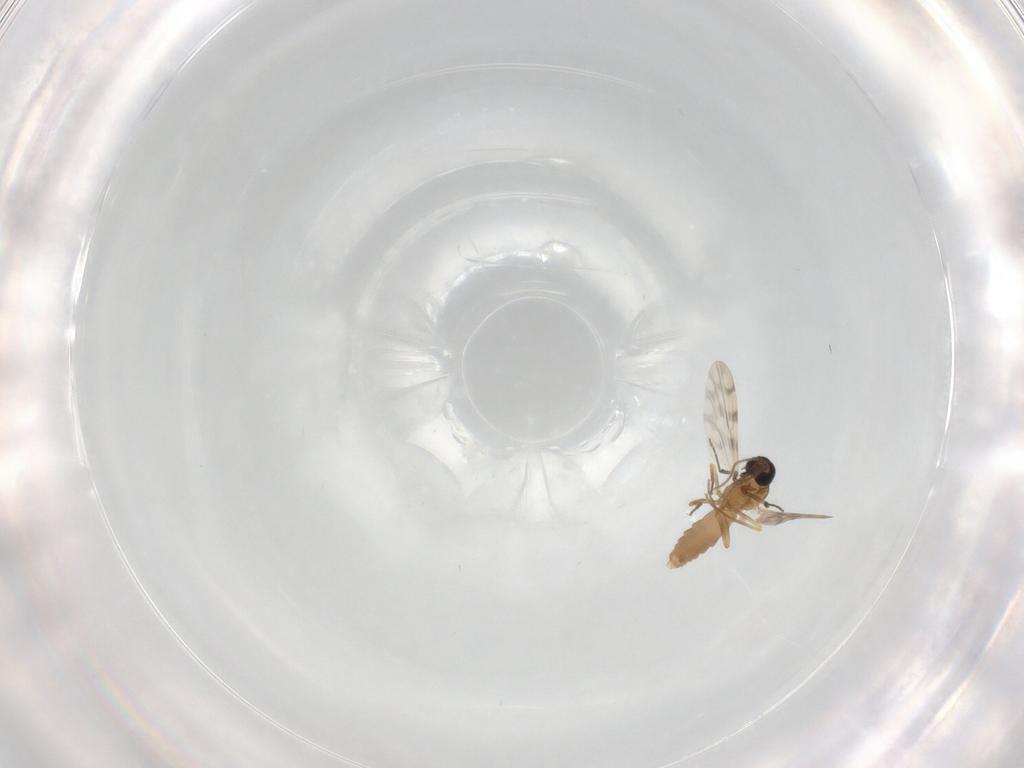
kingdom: Animalia
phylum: Arthropoda
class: Insecta
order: Diptera
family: Ceratopogonidae
